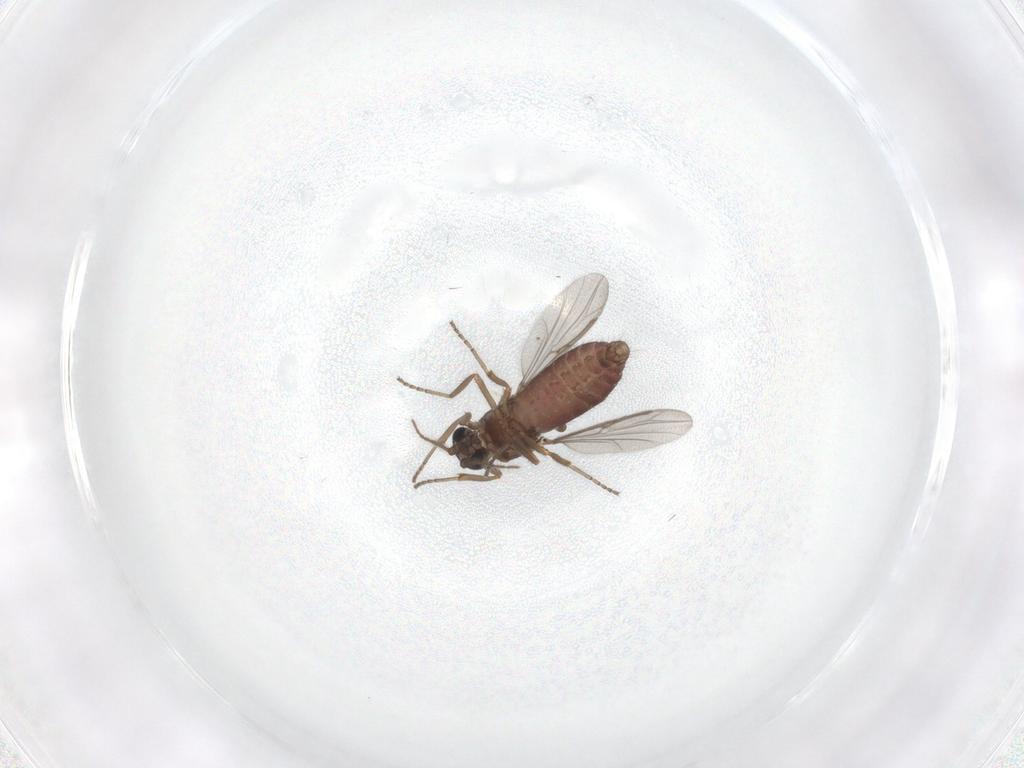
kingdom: Animalia
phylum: Arthropoda
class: Insecta
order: Diptera
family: Ceratopogonidae
